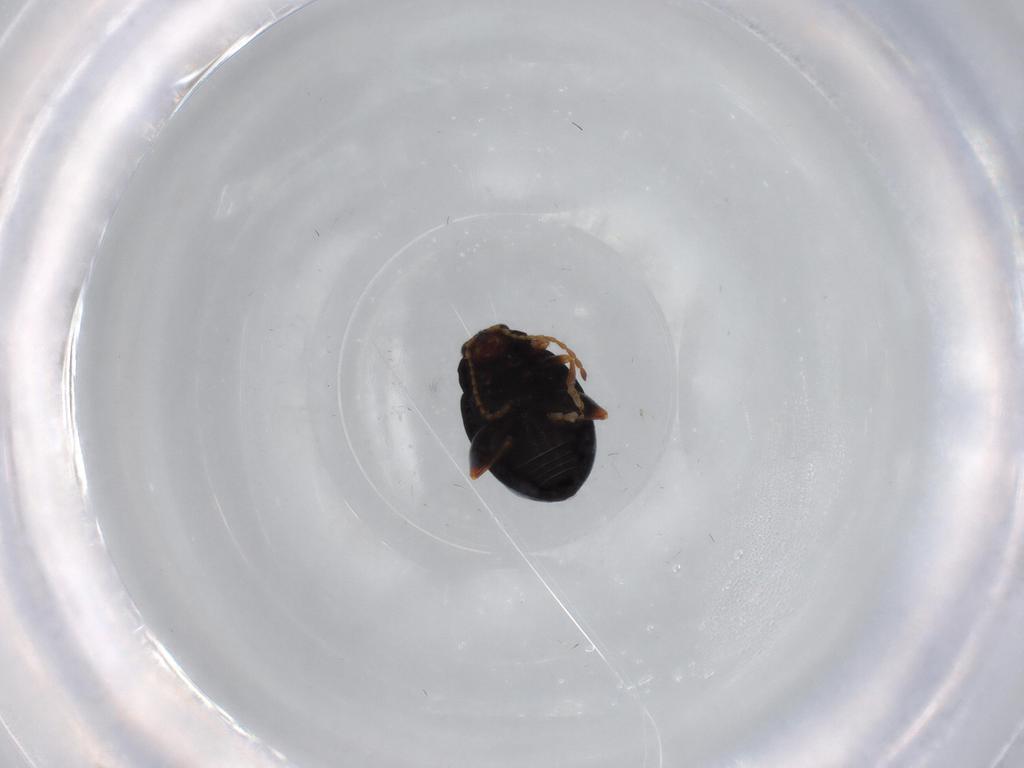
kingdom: Animalia
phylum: Arthropoda
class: Insecta
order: Coleoptera
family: Chrysomelidae
